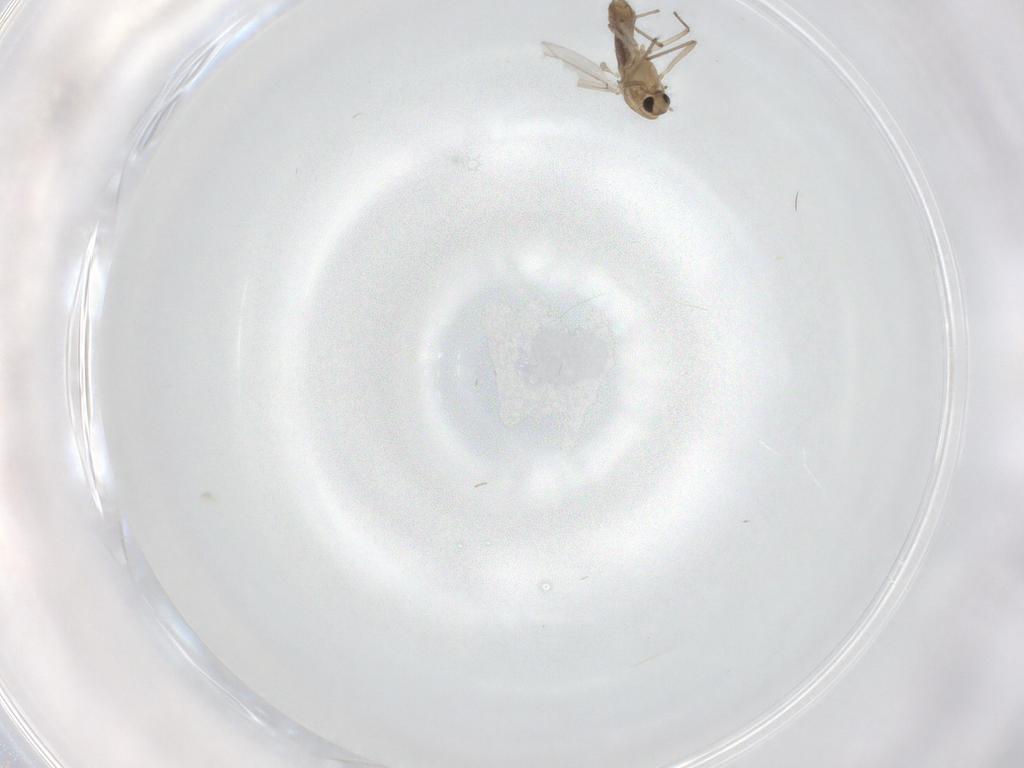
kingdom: Animalia
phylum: Arthropoda
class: Insecta
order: Diptera
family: Chironomidae
